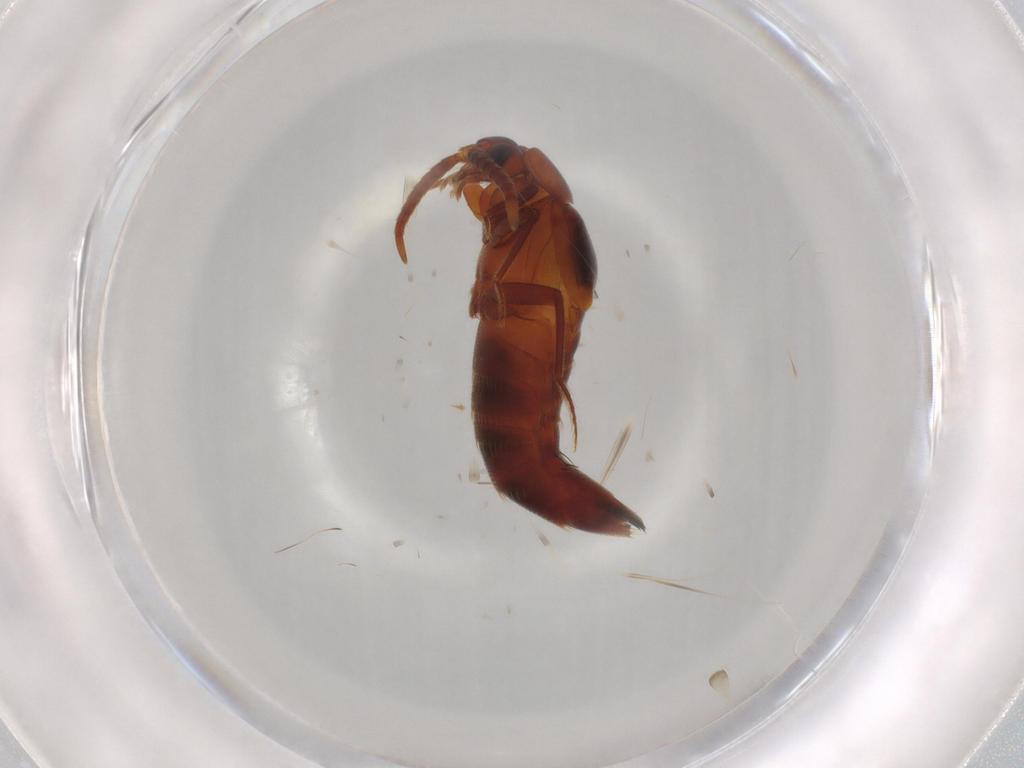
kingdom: Animalia
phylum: Arthropoda
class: Insecta
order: Coleoptera
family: Staphylinidae
